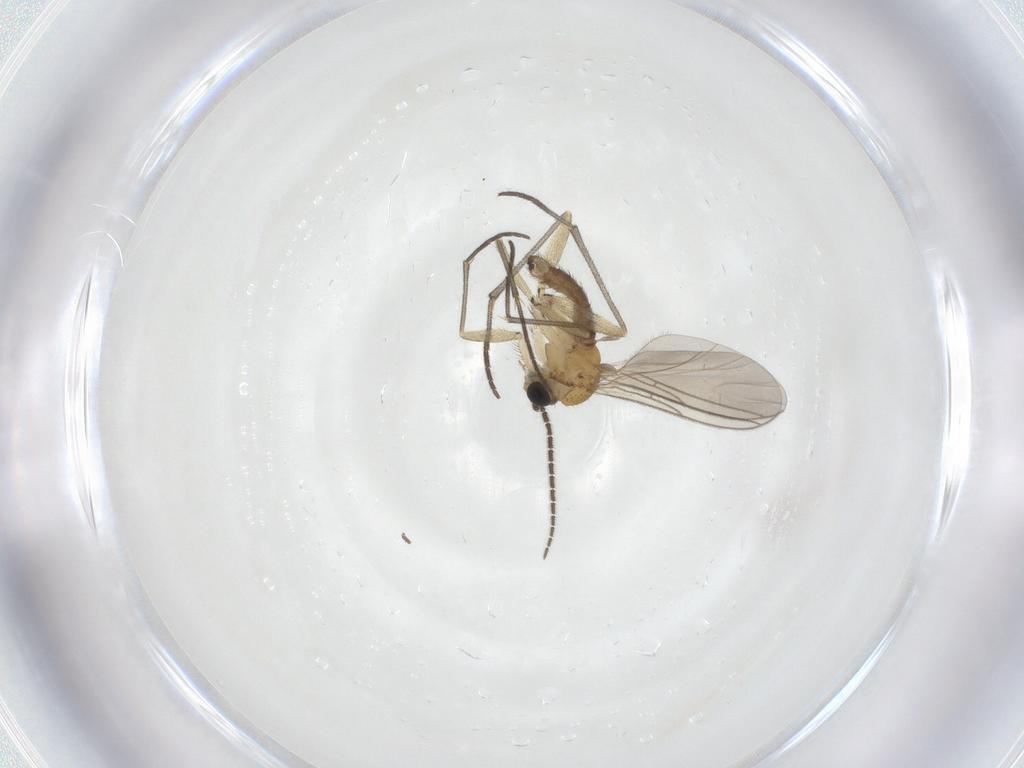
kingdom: Animalia
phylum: Arthropoda
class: Insecta
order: Diptera
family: Sciaridae
